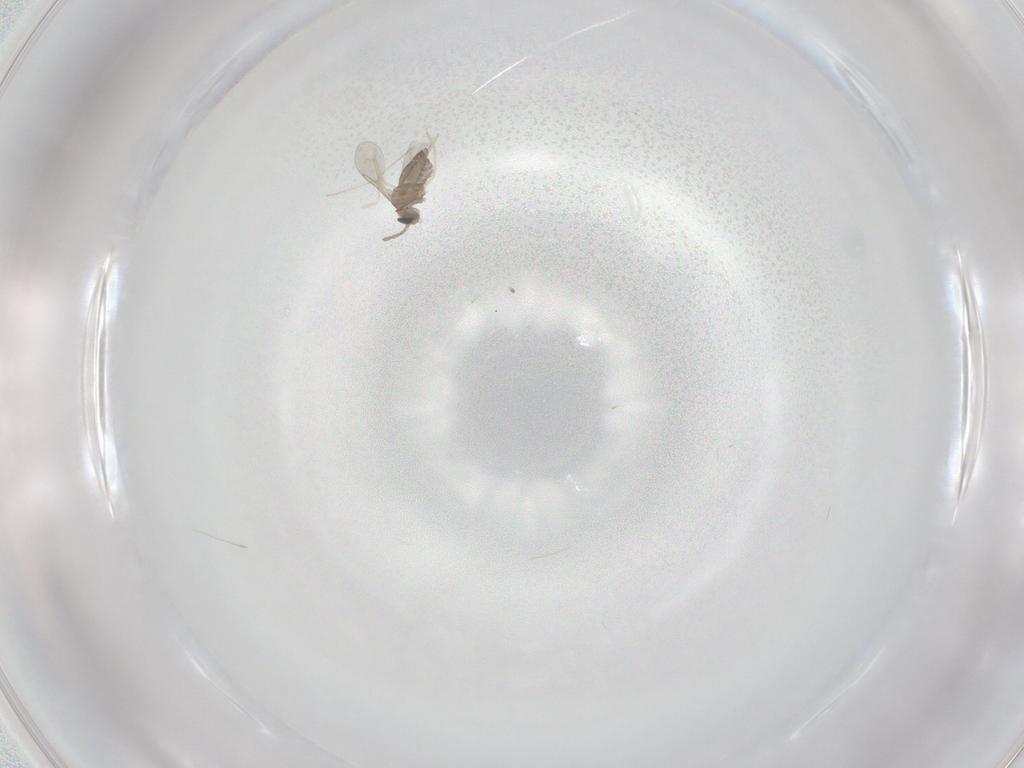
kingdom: Animalia
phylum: Arthropoda
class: Insecta
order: Diptera
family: Cecidomyiidae
